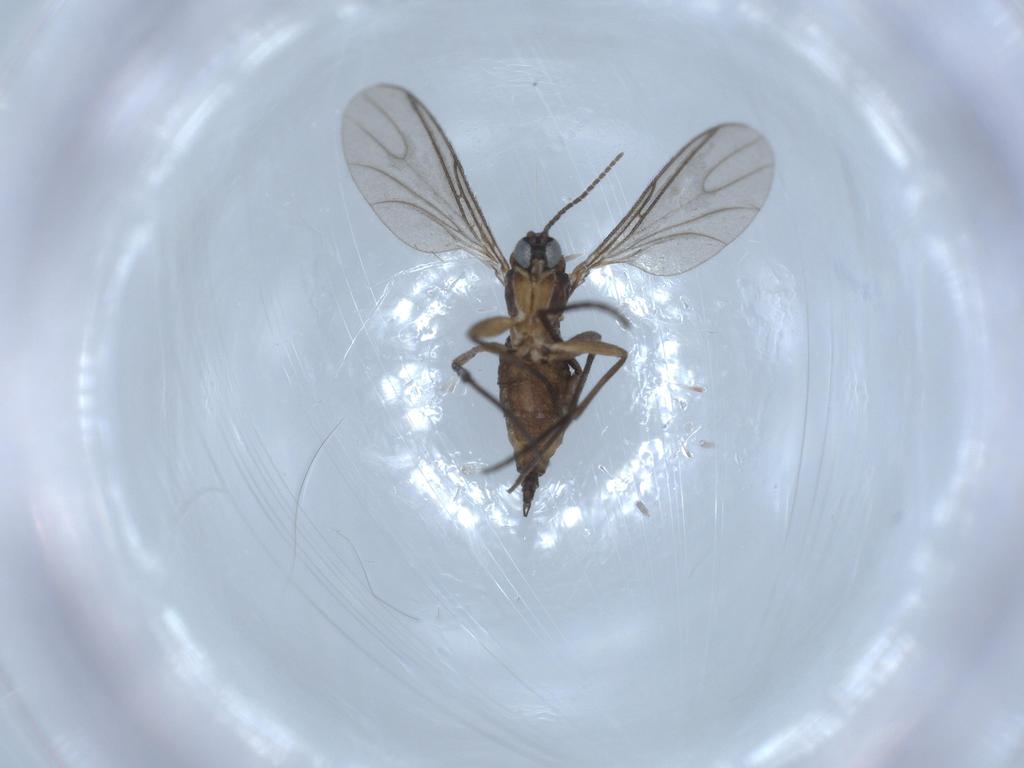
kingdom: Animalia
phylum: Arthropoda
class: Insecta
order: Diptera
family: Sciaridae
